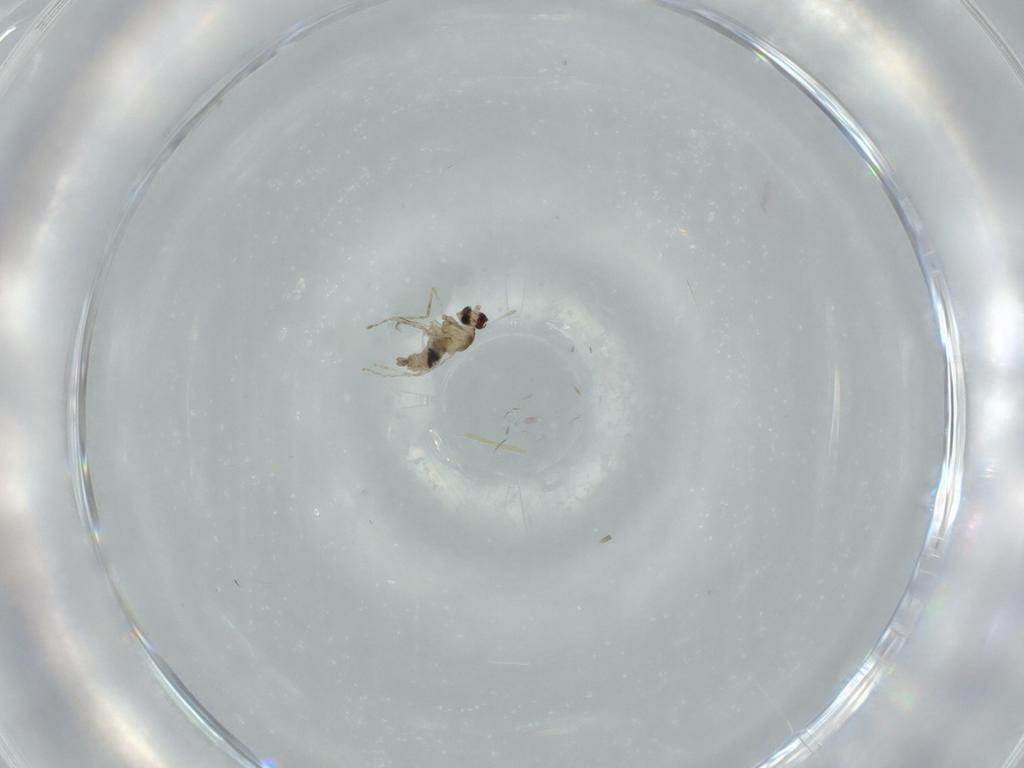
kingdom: Animalia
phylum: Arthropoda
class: Insecta
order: Diptera
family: Cecidomyiidae
